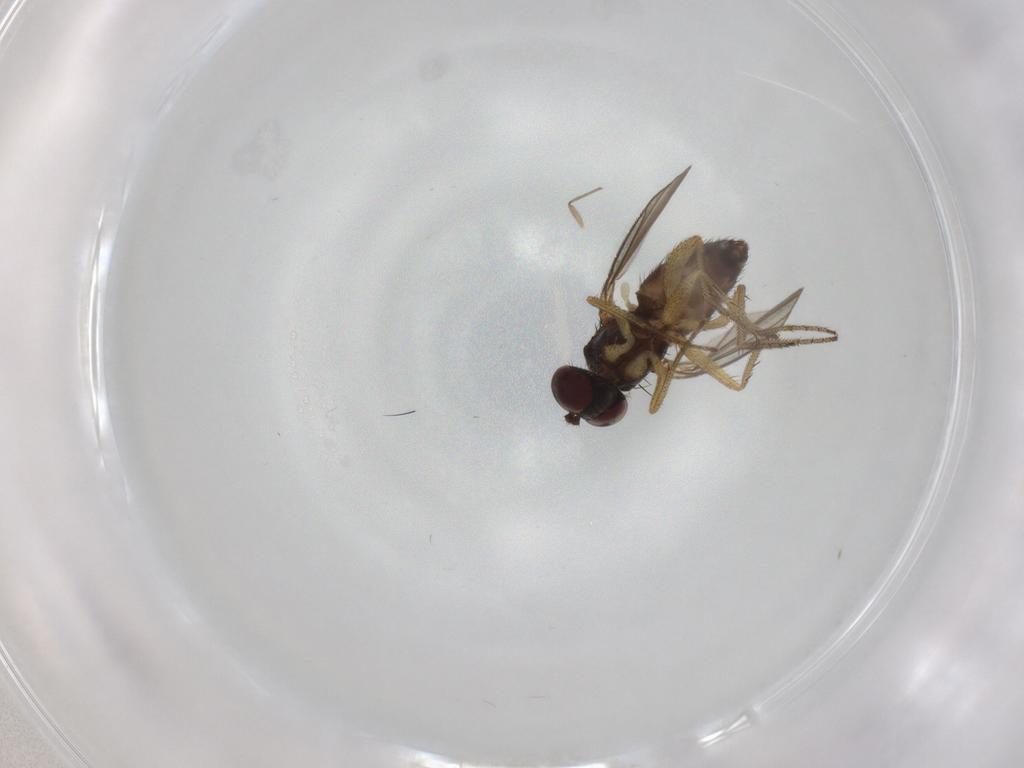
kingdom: Animalia
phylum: Arthropoda
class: Insecta
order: Diptera
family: Dolichopodidae
